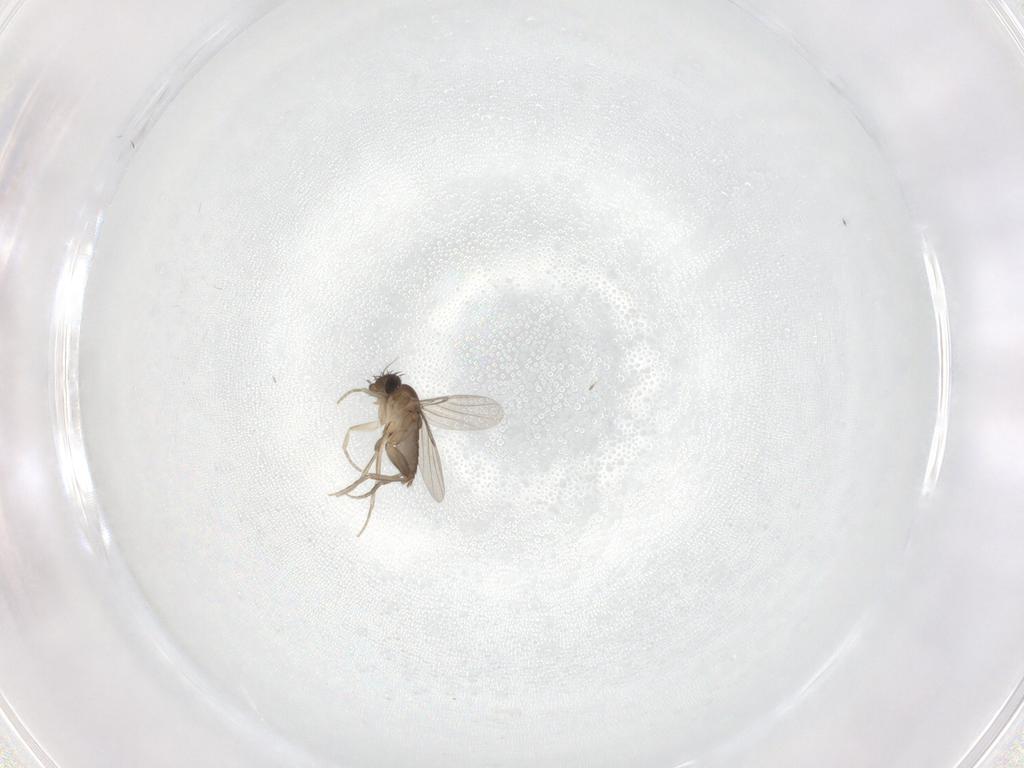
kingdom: Animalia
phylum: Arthropoda
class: Insecta
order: Diptera
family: Phoridae
